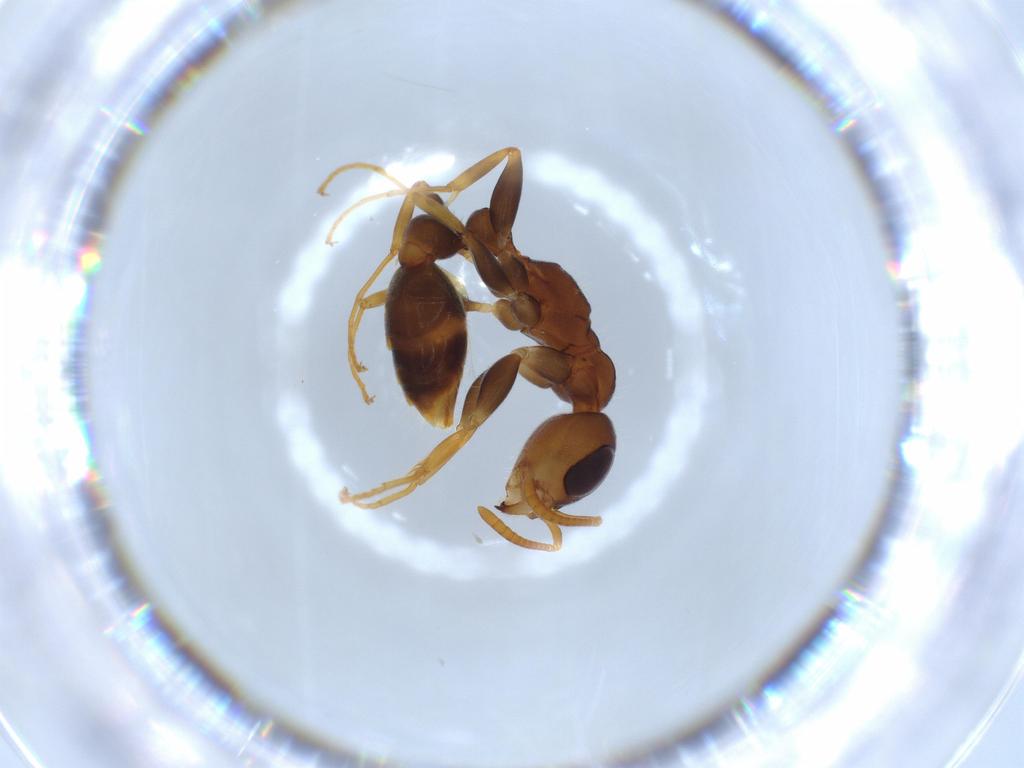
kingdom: Animalia
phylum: Arthropoda
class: Insecta
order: Hymenoptera
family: Formicidae
